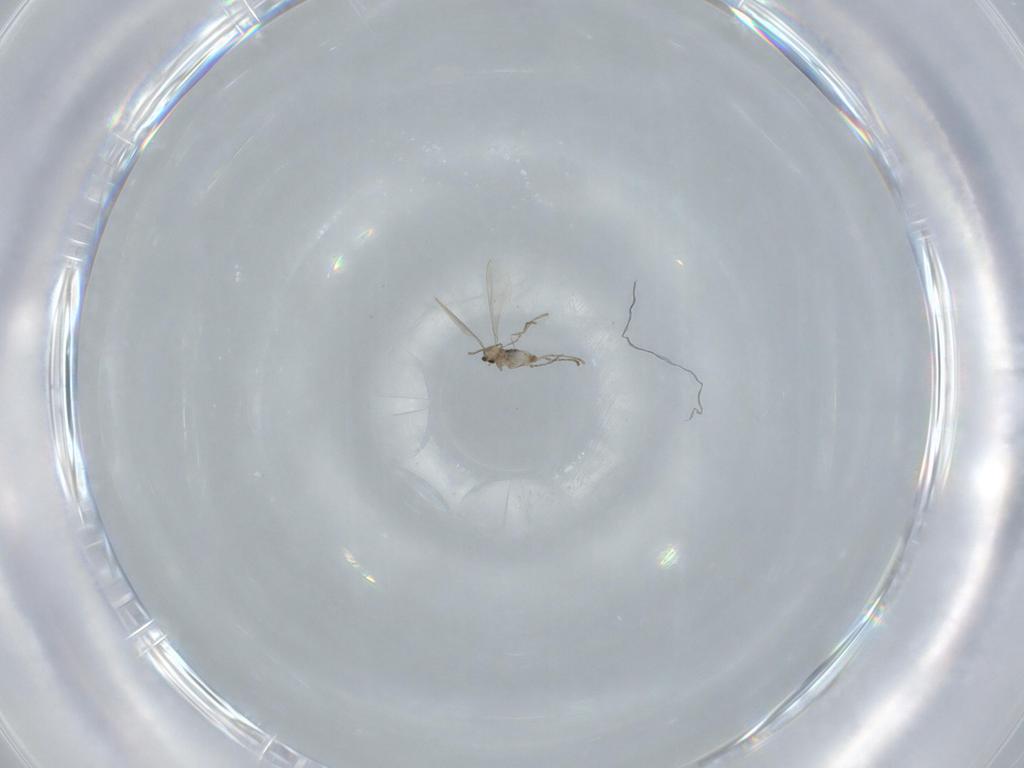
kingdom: Animalia
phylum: Arthropoda
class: Insecta
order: Diptera
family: Cecidomyiidae
